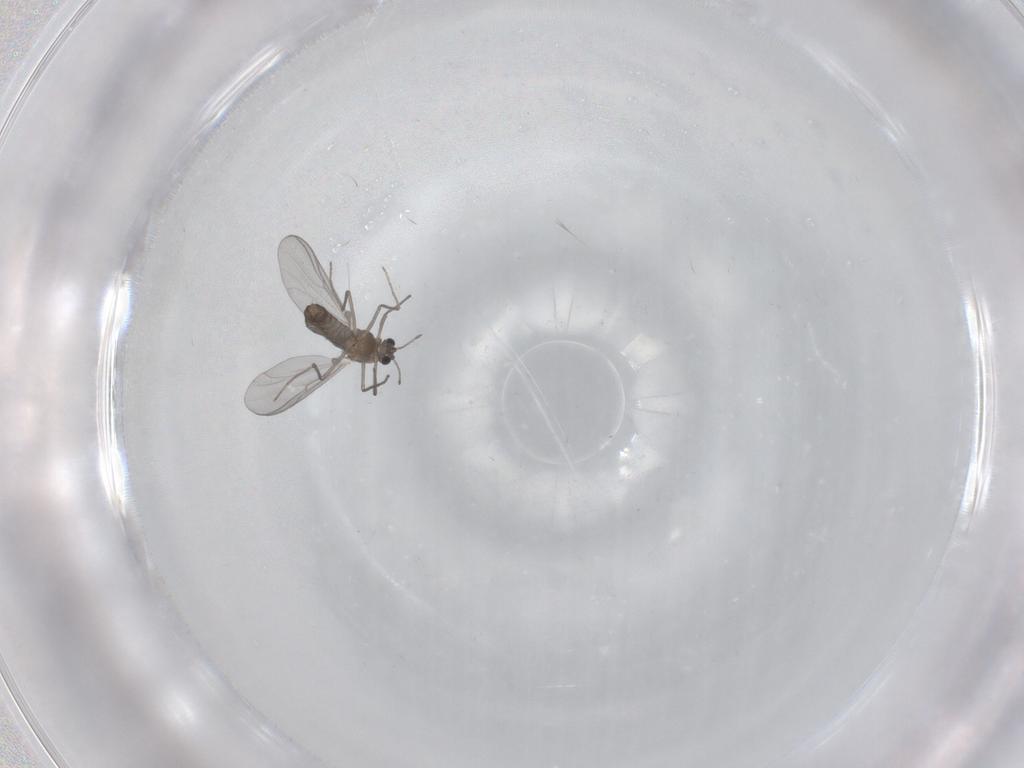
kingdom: Animalia
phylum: Arthropoda
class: Insecta
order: Diptera
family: Chironomidae
